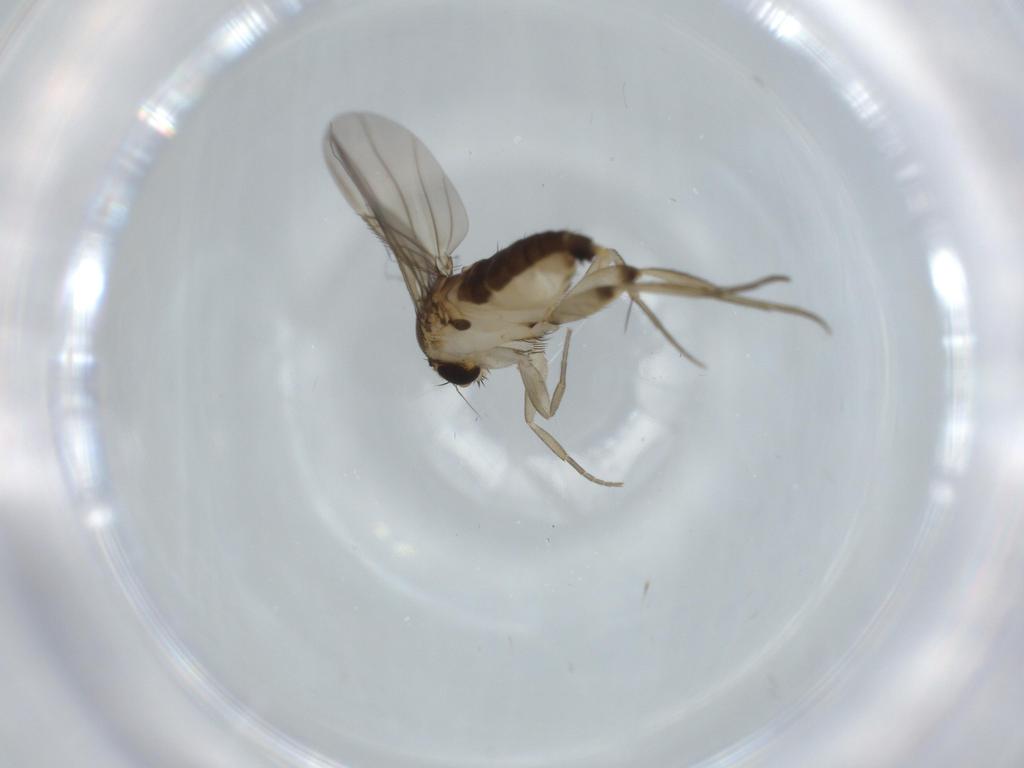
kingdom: Animalia
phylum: Arthropoda
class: Insecta
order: Diptera
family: Phoridae
